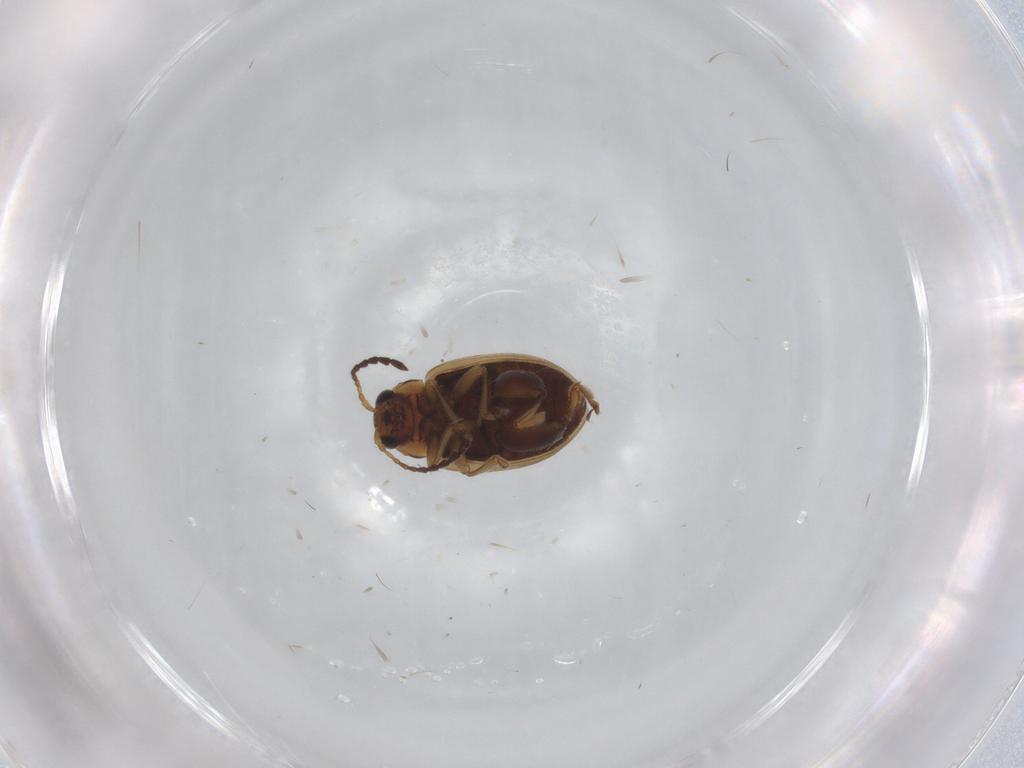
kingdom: Animalia
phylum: Arthropoda
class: Insecta
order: Coleoptera
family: Chrysomelidae
